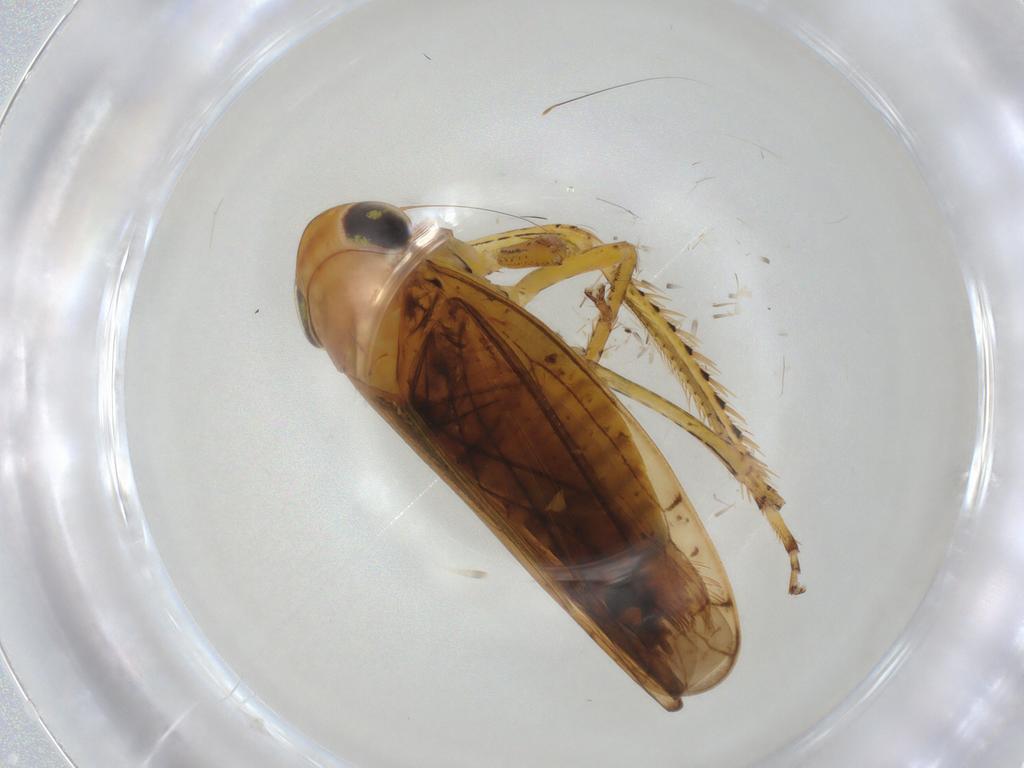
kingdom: Animalia
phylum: Arthropoda
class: Insecta
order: Hemiptera
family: Cicadellidae
